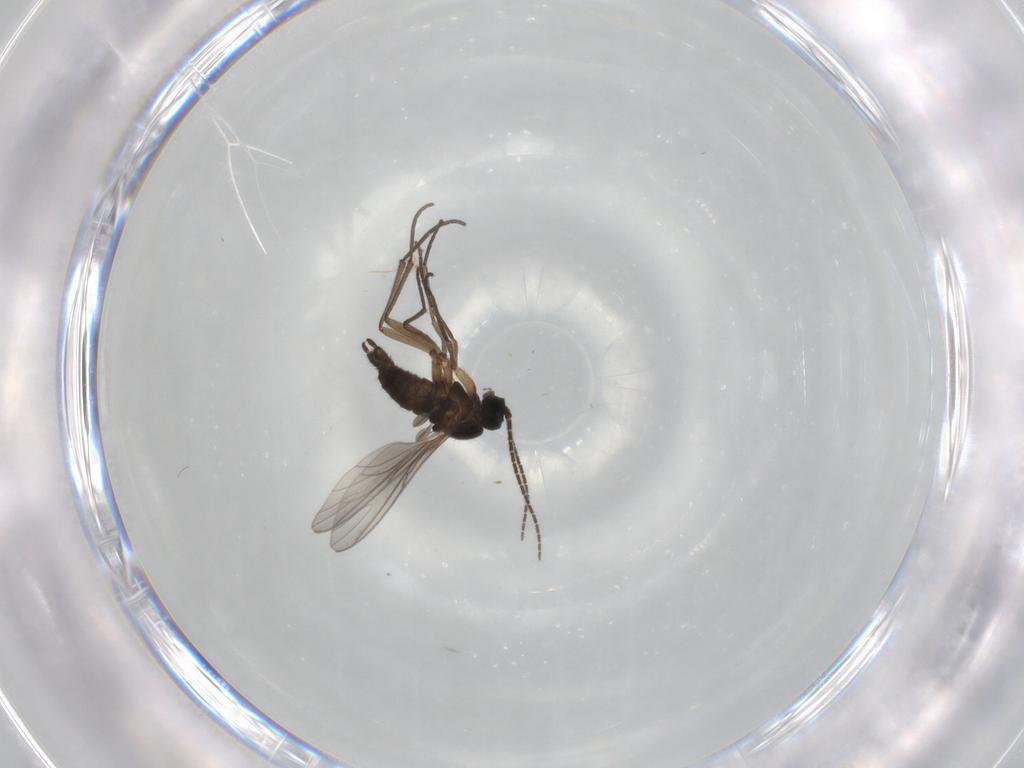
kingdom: Animalia
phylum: Arthropoda
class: Insecta
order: Diptera
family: Sciaridae
